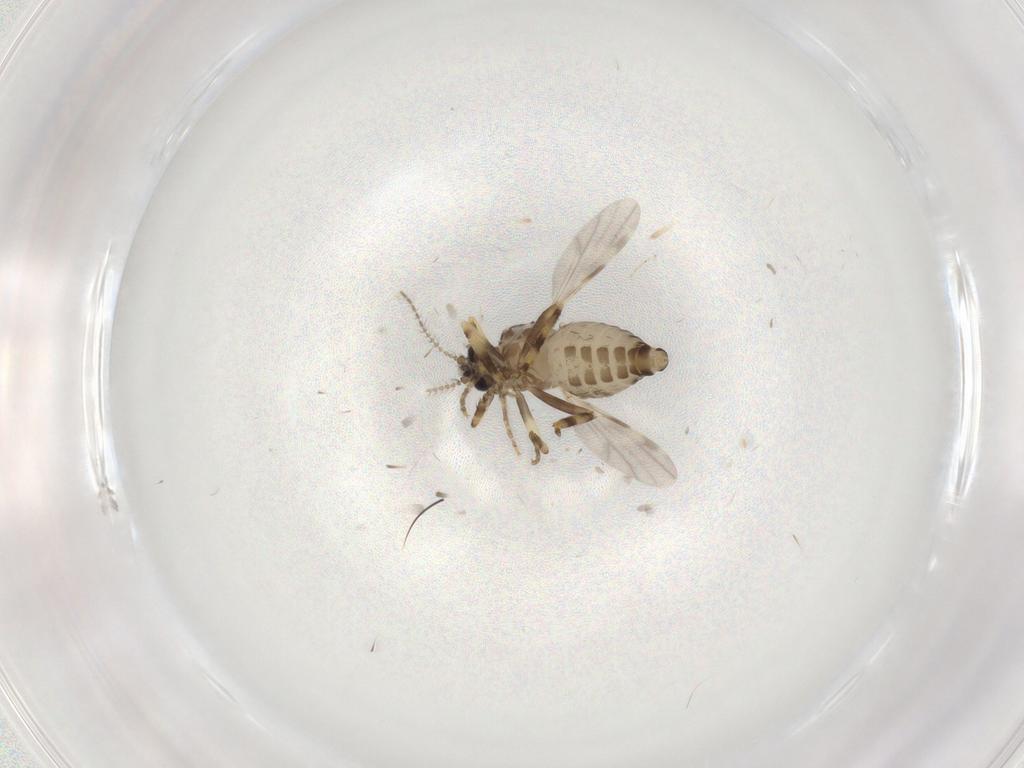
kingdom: Animalia
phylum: Arthropoda
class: Insecta
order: Diptera
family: Ceratopogonidae
